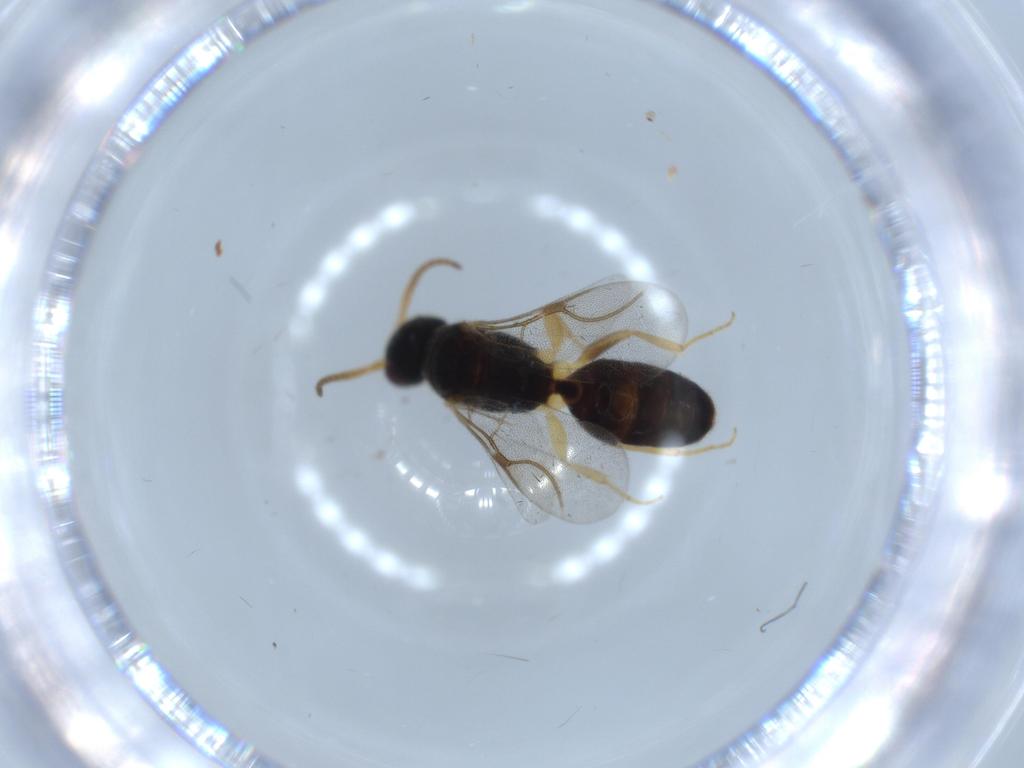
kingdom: Animalia
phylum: Arthropoda
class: Insecta
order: Hymenoptera
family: Bethylidae
